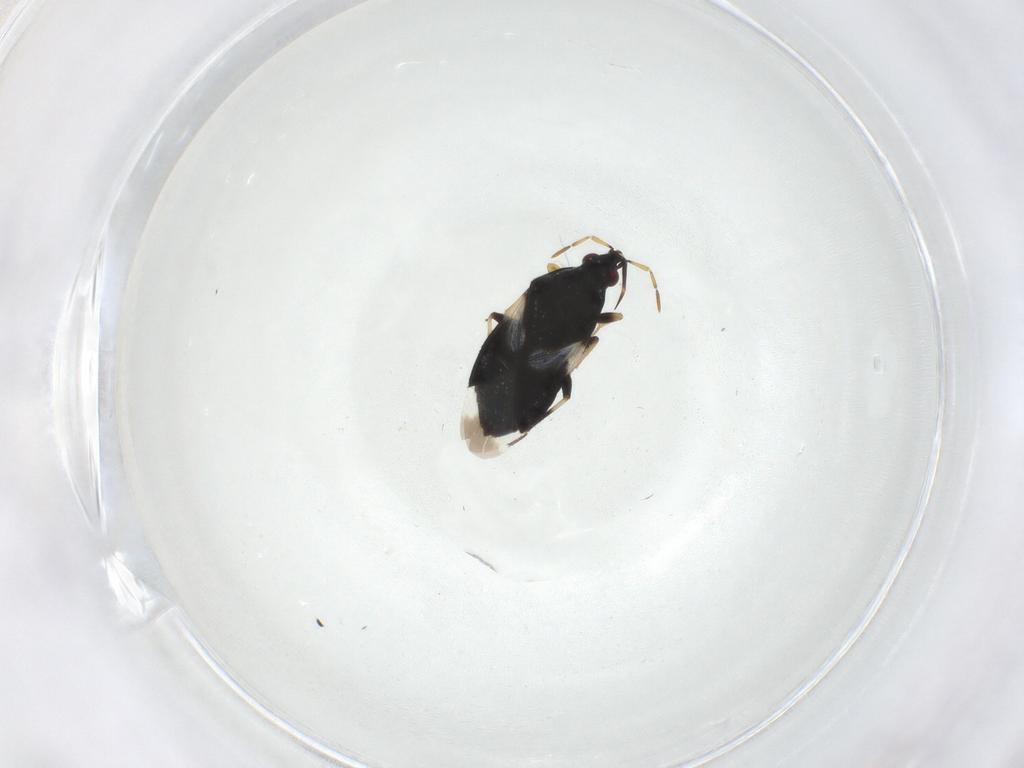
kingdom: Animalia
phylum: Arthropoda
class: Insecta
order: Hemiptera
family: Miridae
